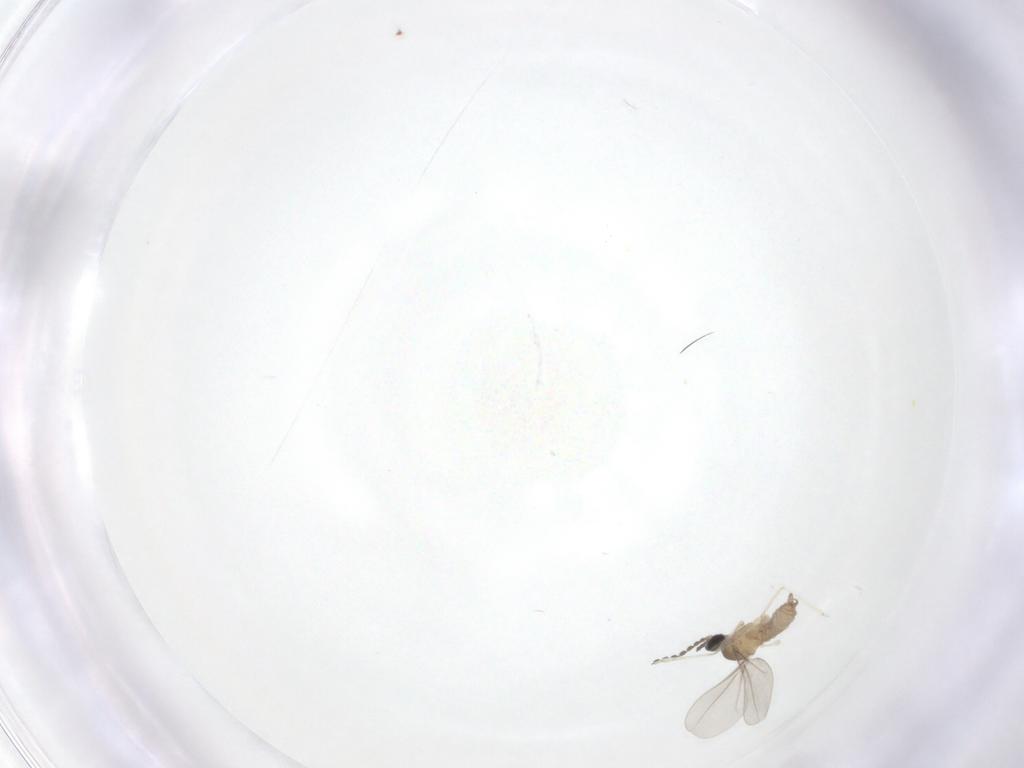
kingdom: Animalia
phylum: Arthropoda
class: Insecta
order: Diptera
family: Cecidomyiidae
